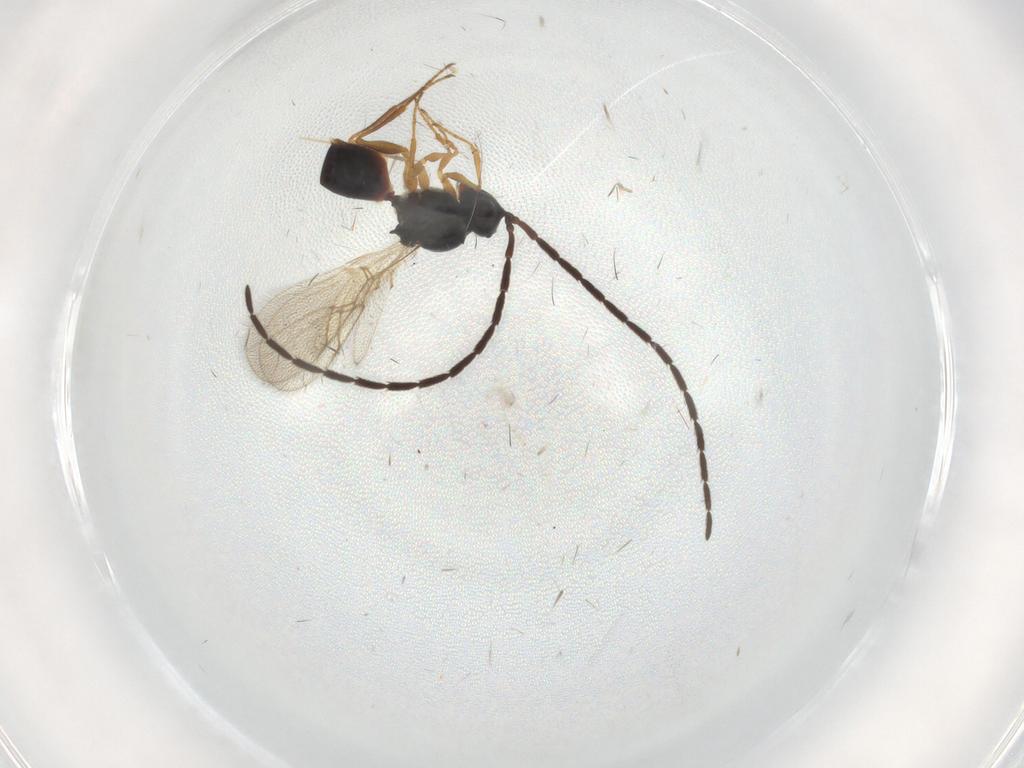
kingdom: Animalia
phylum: Arthropoda
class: Insecta
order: Hymenoptera
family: Figitidae
